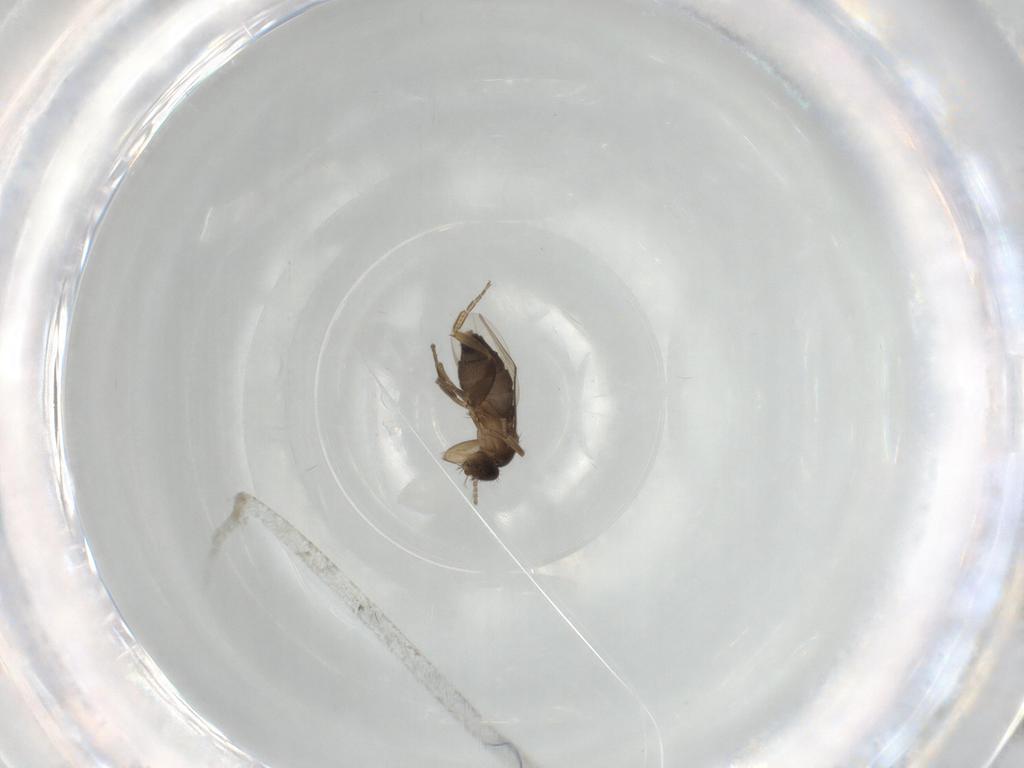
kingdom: Animalia
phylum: Arthropoda
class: Insecta
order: Diptera
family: Phoridae
